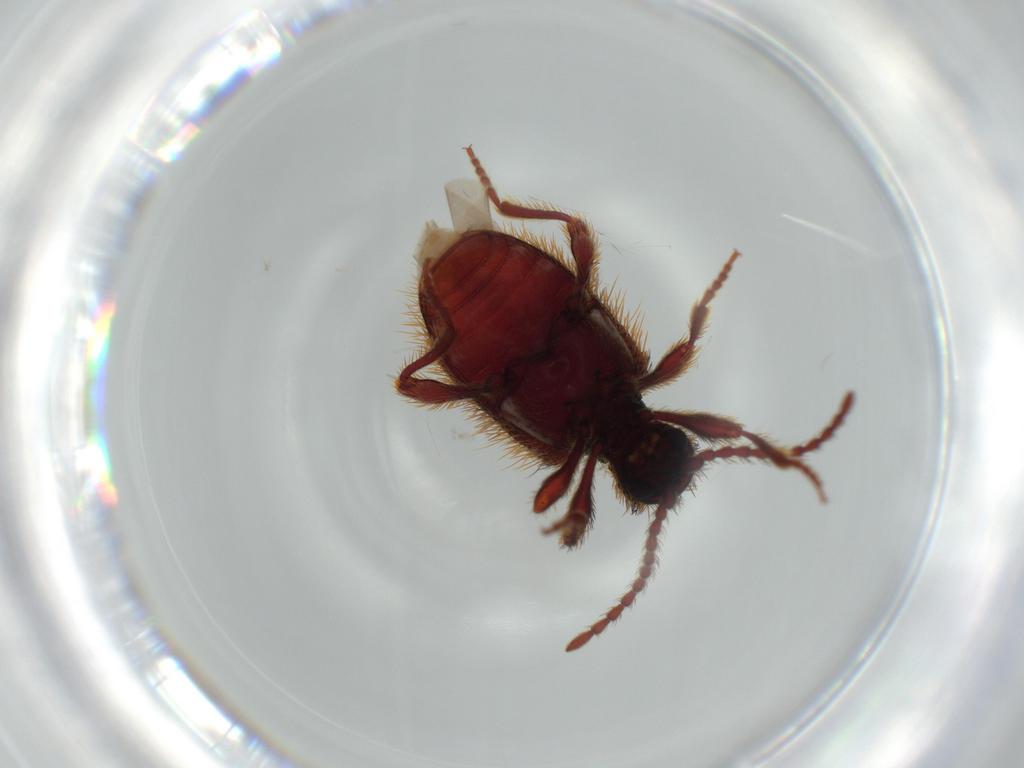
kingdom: Animalia
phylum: Arthropoda
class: Insecta
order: Coleoptera
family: Ptinidae
